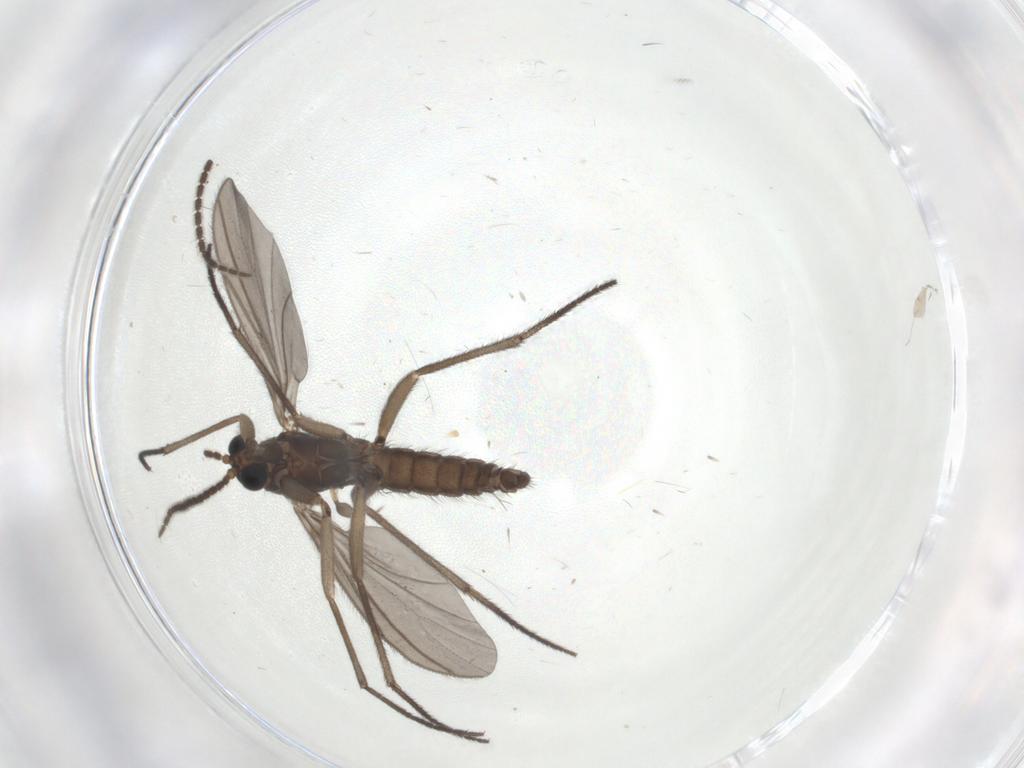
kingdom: Animalia
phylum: Arthropoda
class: Insecta
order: Diptera
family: Sciaridae
